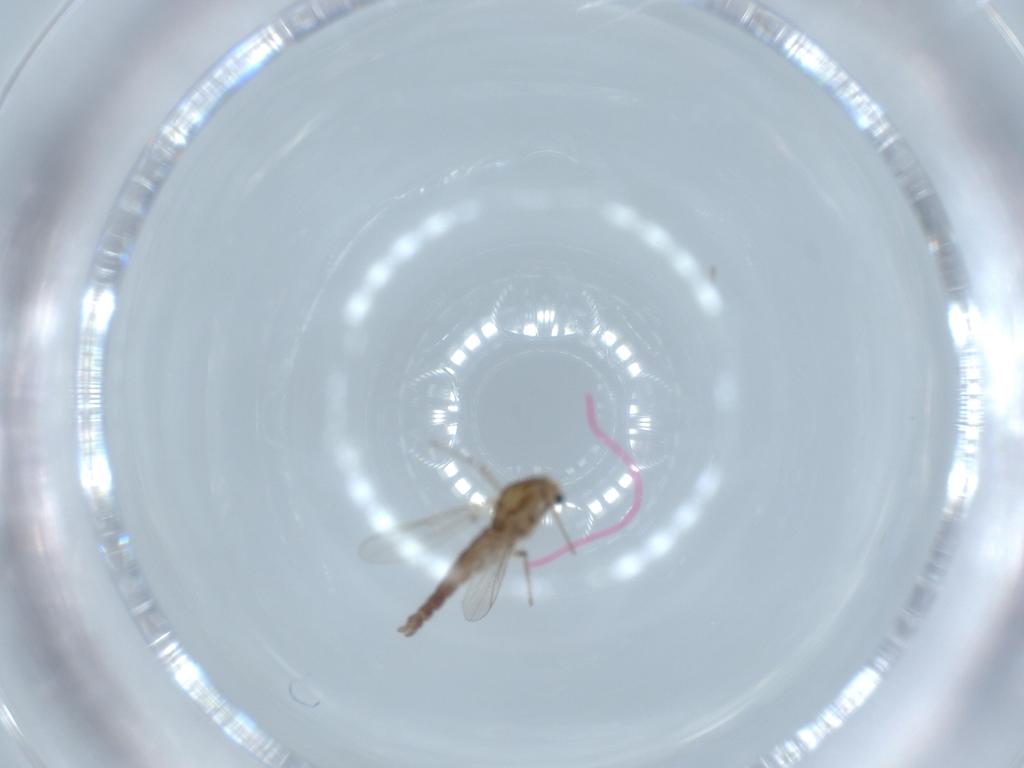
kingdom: Animalia
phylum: Arthropoda
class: Insecta
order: Diptera
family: Chironomidae
